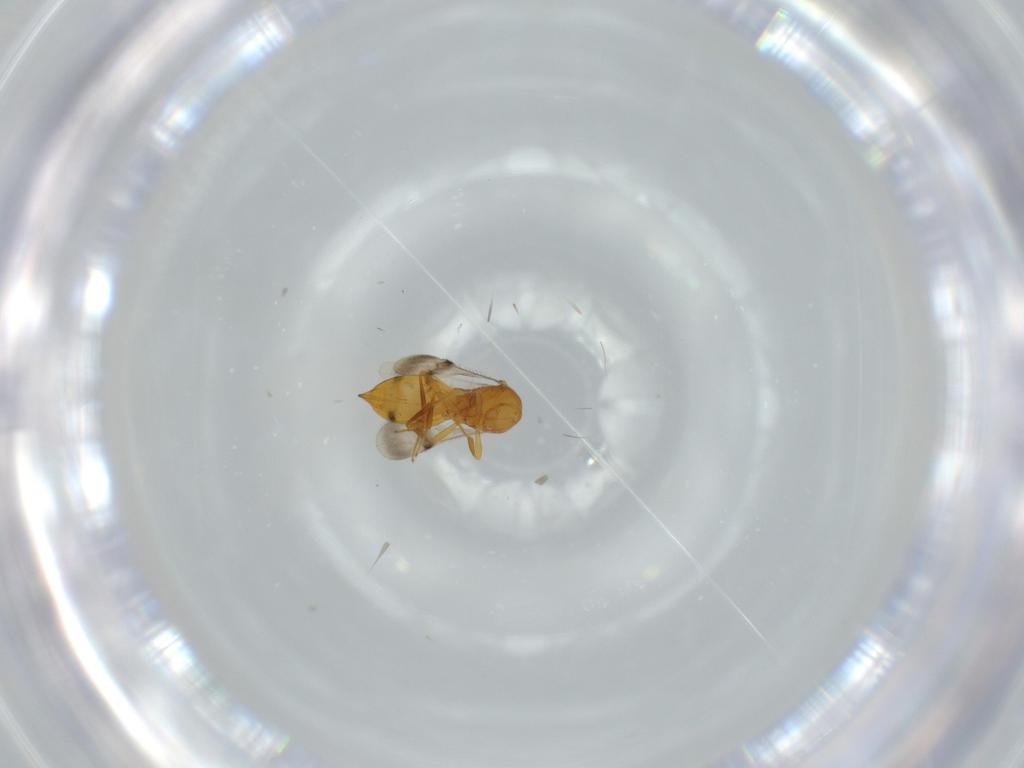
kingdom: Animalia
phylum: Arthropoda
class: Insecta
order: Hymenoptera
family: Scelionidae
